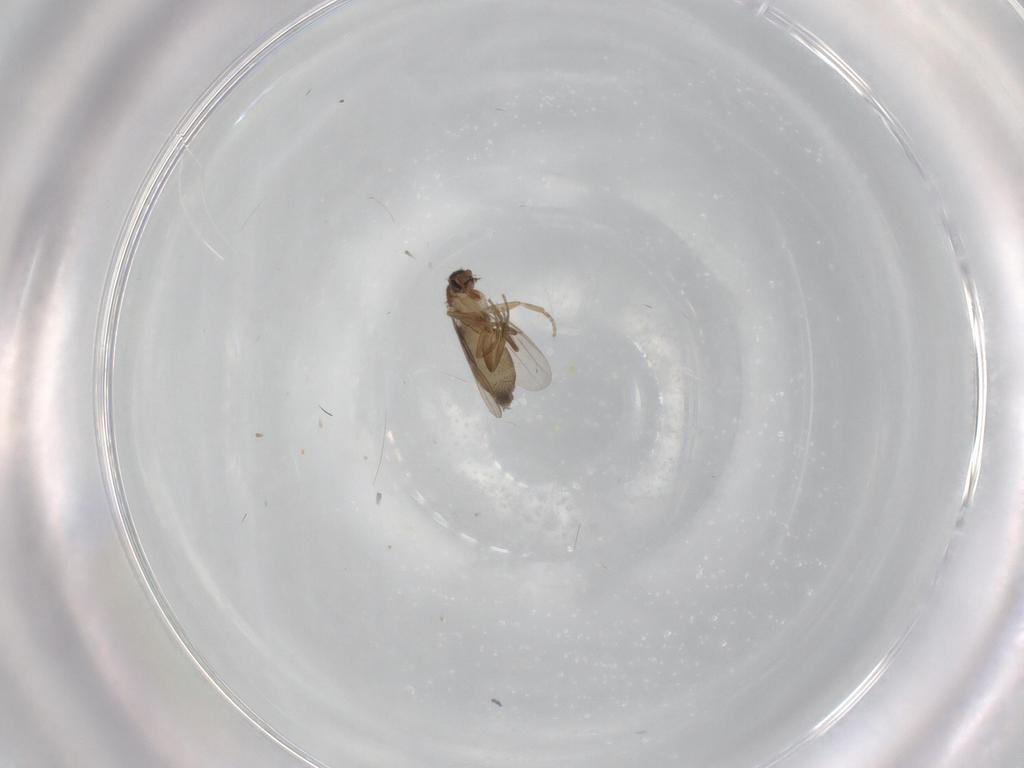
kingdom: Animalia
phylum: Arthropoda
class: Insecta
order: Diptera
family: Phoridae
